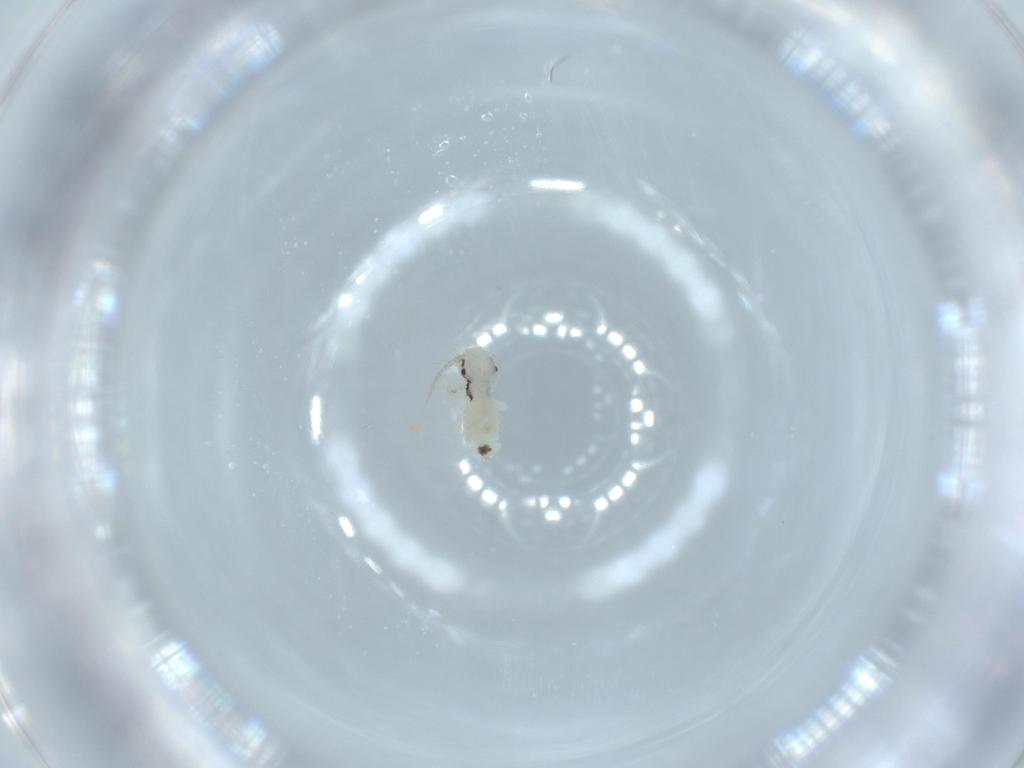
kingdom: Animalia
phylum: Arthropoda
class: Insecta
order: Psocodea
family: Caeciliusidae
